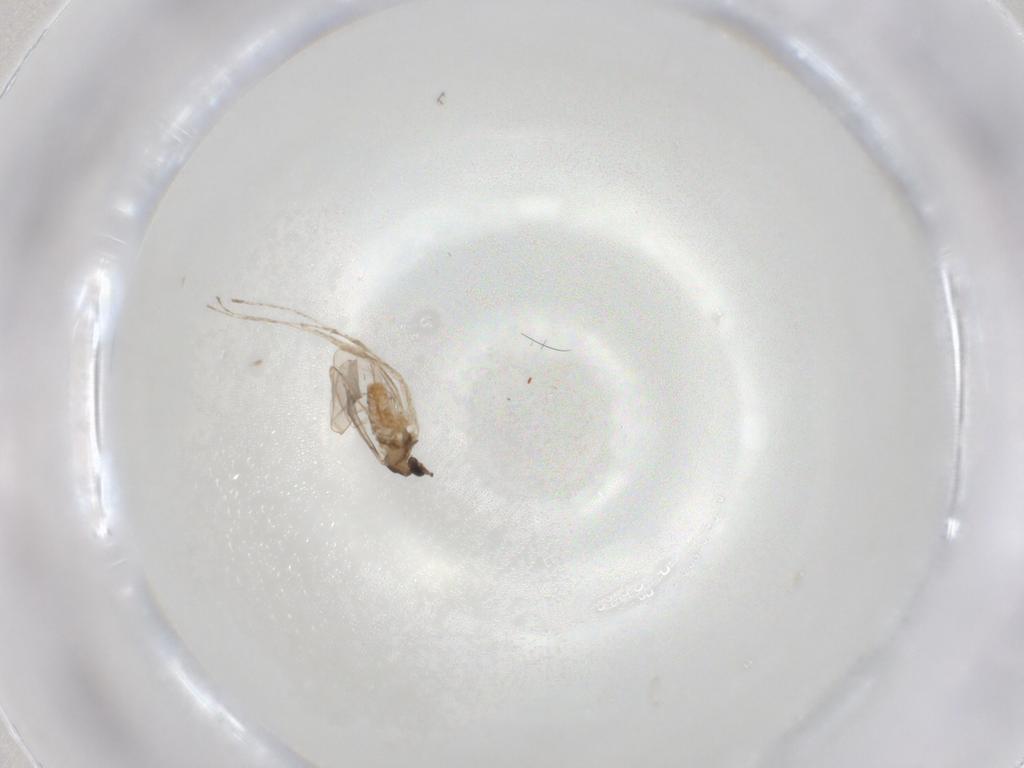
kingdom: Animalia
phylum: Arthropoda
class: Insecta
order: Diptera
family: Cecidomyiidae
